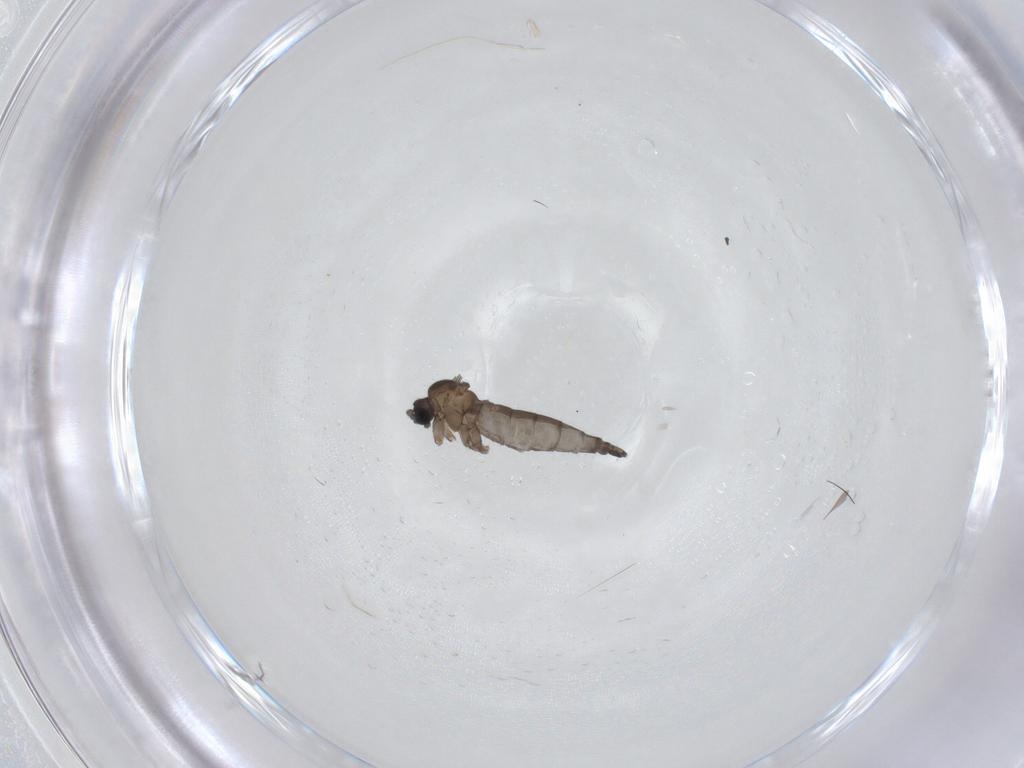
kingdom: Animalia
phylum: Arthropoda
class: Insecta
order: Diptera
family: Sciaridae
